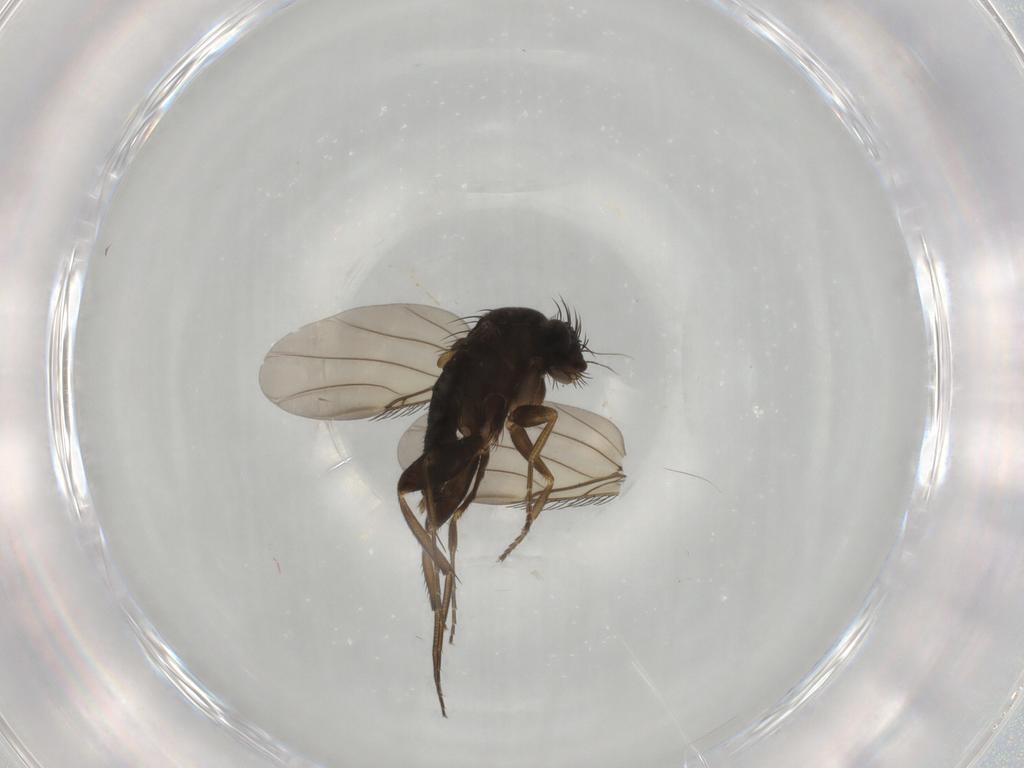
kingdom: Animalia
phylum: Arthropoda
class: Insecta
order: Diptera
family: Phoridae
